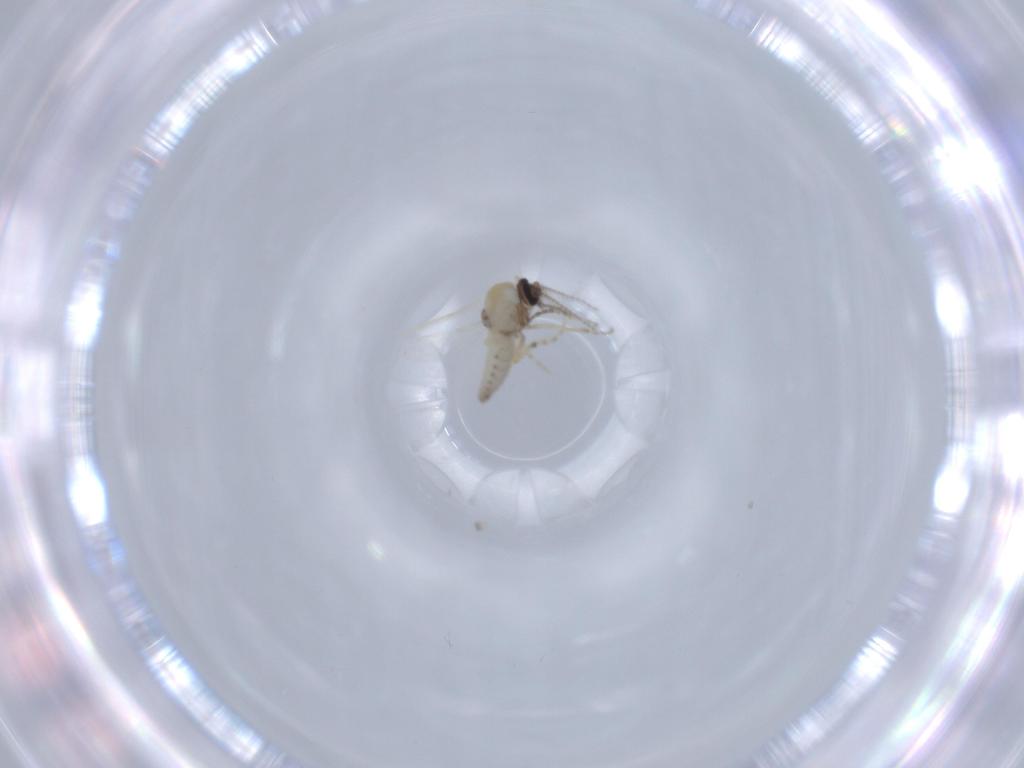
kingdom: Animalia
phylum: Arthropoda
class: Insecta
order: Diptera
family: Ceratopogonidae
